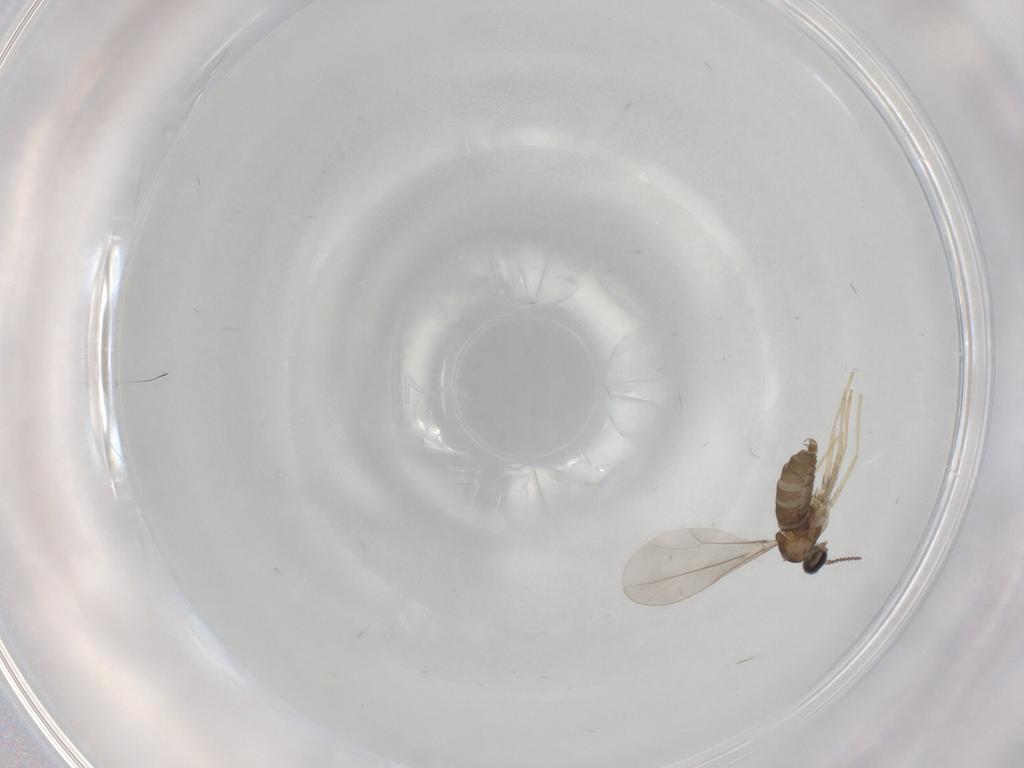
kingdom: Animalia
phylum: Arthropoda
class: Insecta
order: Diptera
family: Cecidomyiidae
